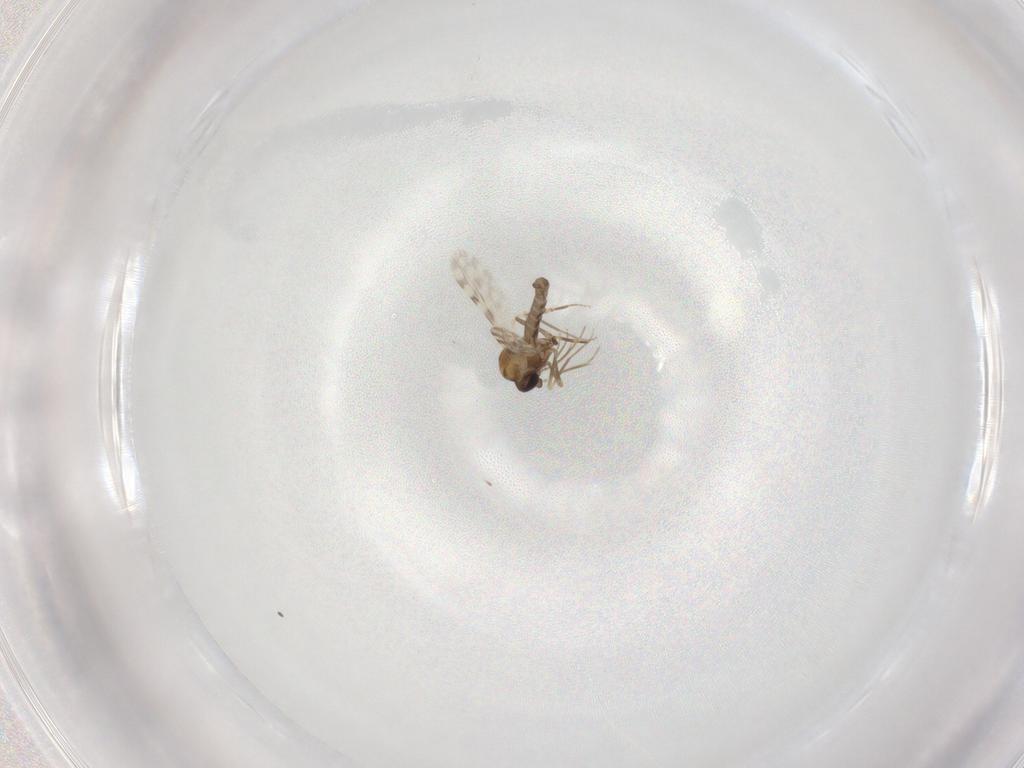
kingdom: Animalia
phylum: Arthropoda
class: Insecta
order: Diptera
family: Ceratopogonidae
